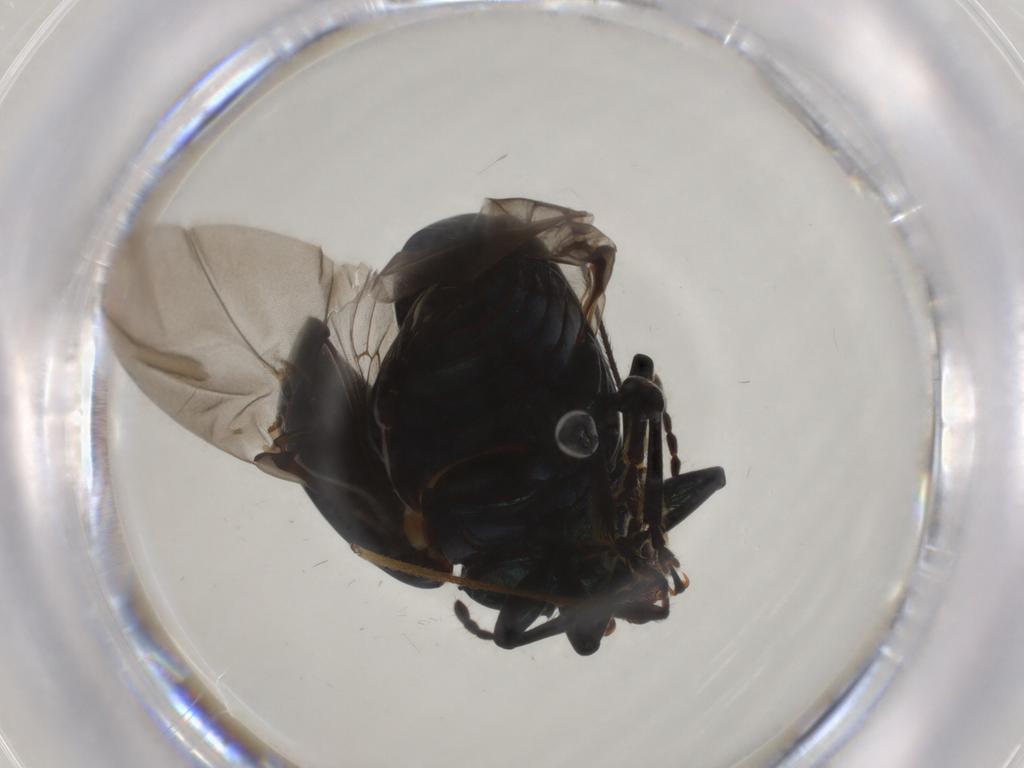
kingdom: Animalia
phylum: Arthropoda
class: Insecta
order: Coleoptera
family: Chrysomelidae
